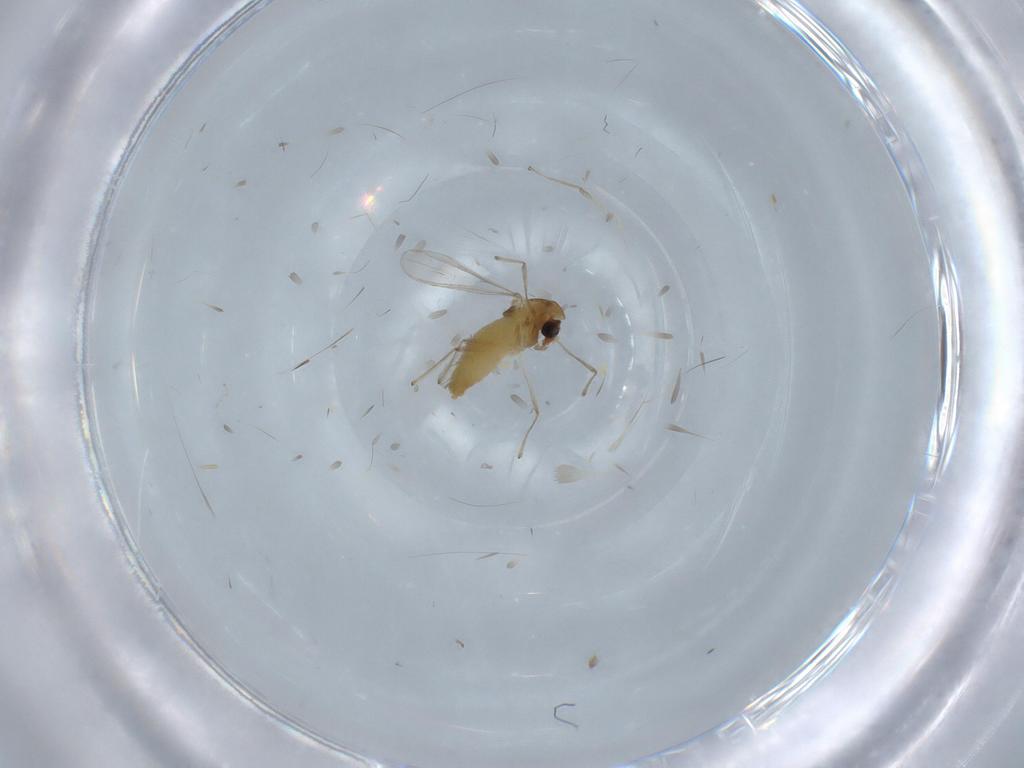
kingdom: Animalia
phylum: Arthropoda
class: Insecta
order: Diptera
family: Chironomidae
